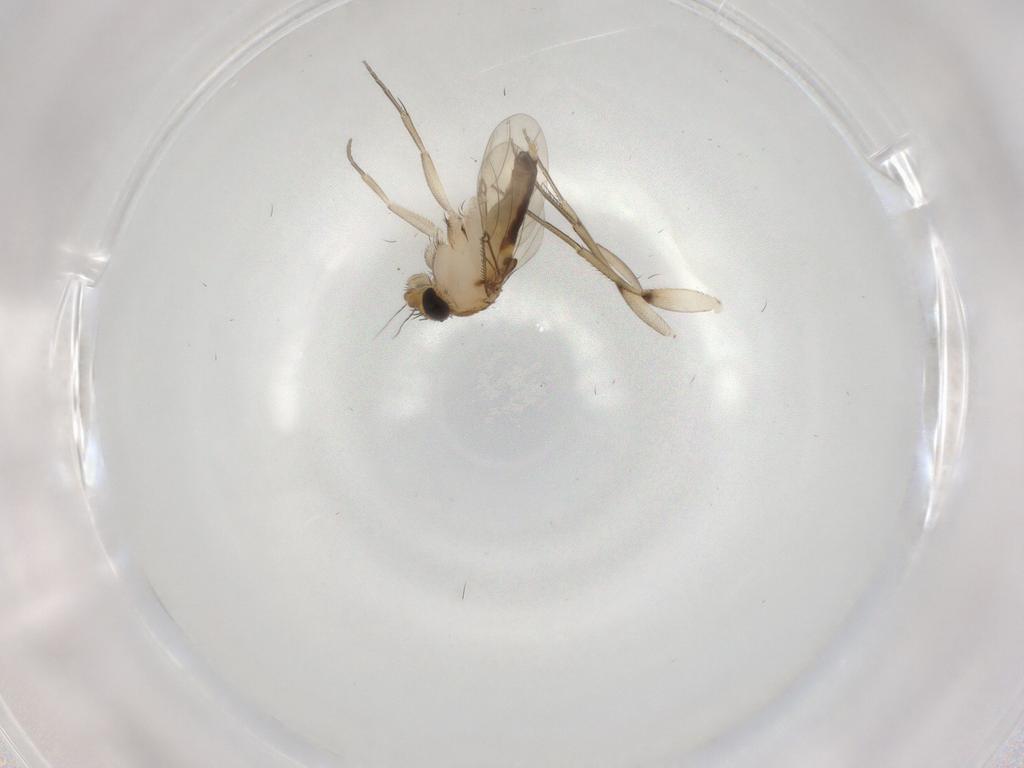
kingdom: Animalia
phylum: Arthropoda
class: Insecta
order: Diptera
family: Phoridae
